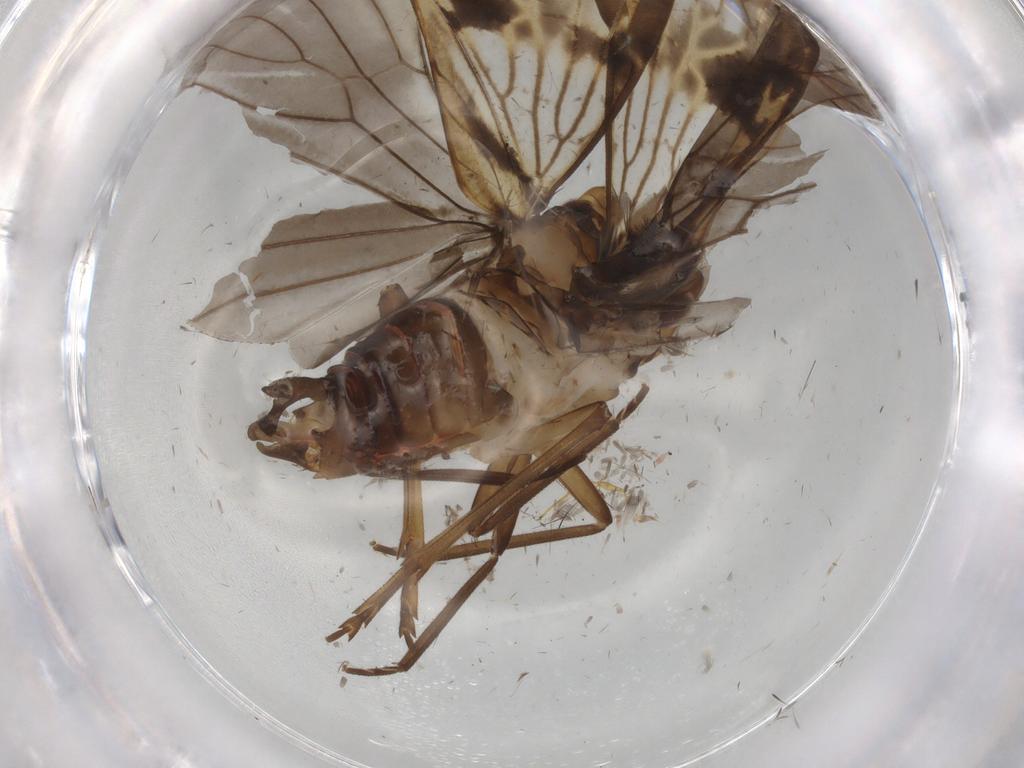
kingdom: Animalia
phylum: Arthropoda
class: Insecta
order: Hemiptera
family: Cixiidae
